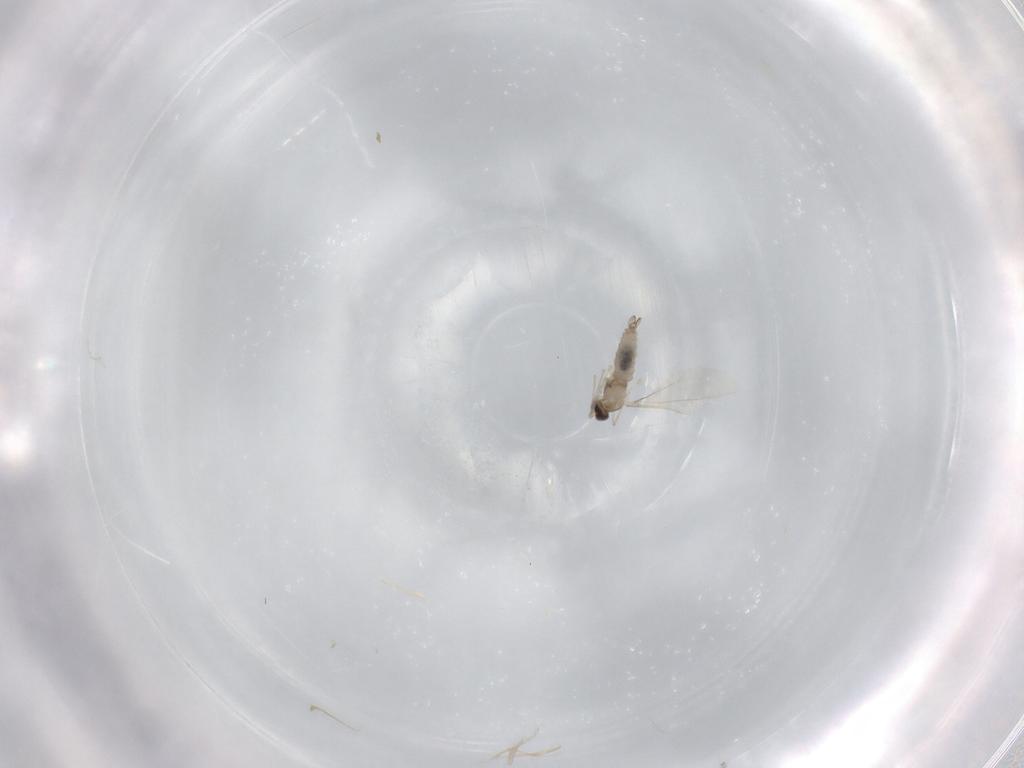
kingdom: Animalia
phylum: Arthropoda
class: Insecta
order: Diptera
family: Cecidomyiidae
